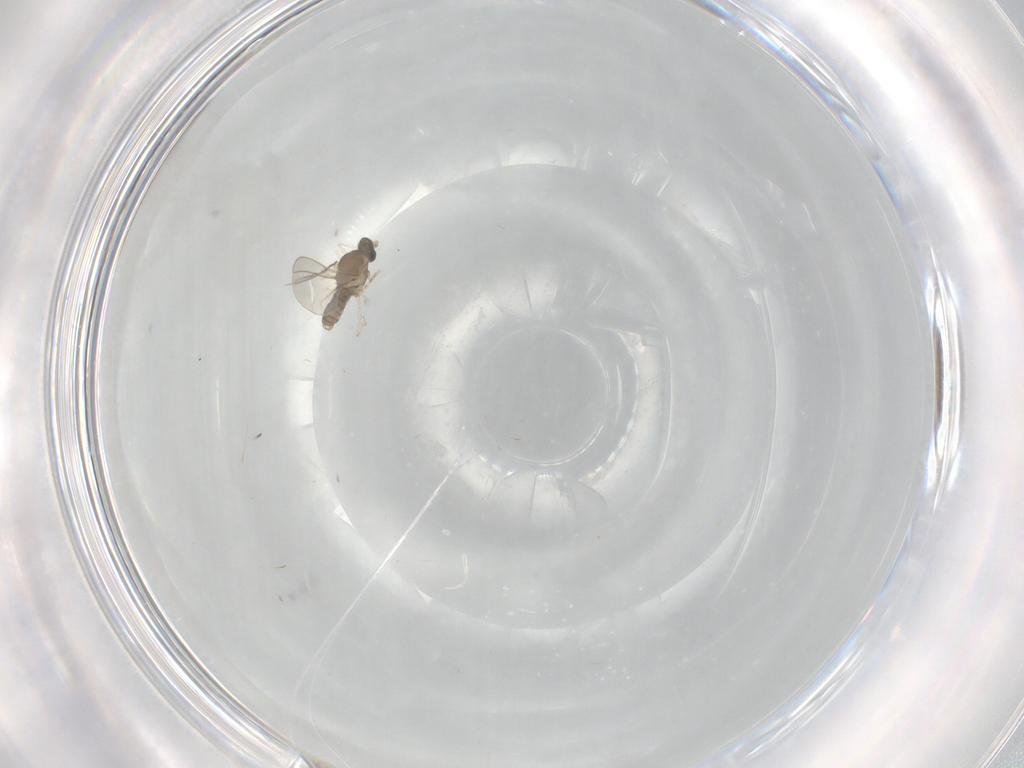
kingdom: Animalia
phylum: Arthropoda
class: Insecta
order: Diptera
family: Cecidomyiidae
